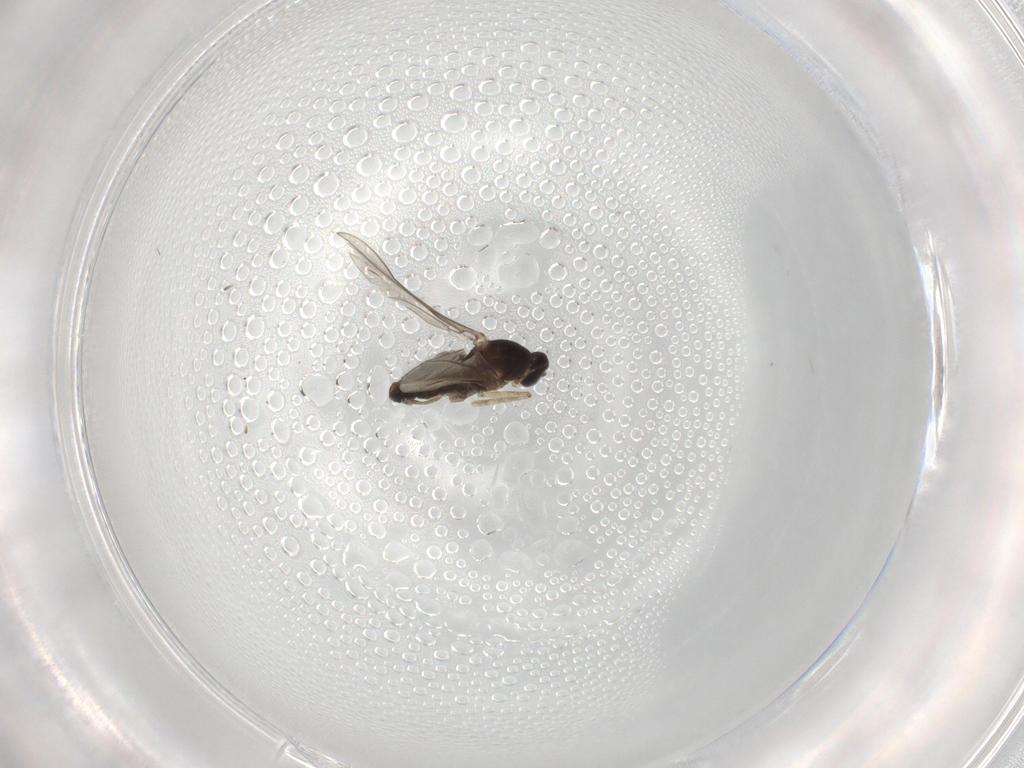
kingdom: Animalia
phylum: Arthropoda
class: Insecta
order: Diptera
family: Cecidomyiidae
